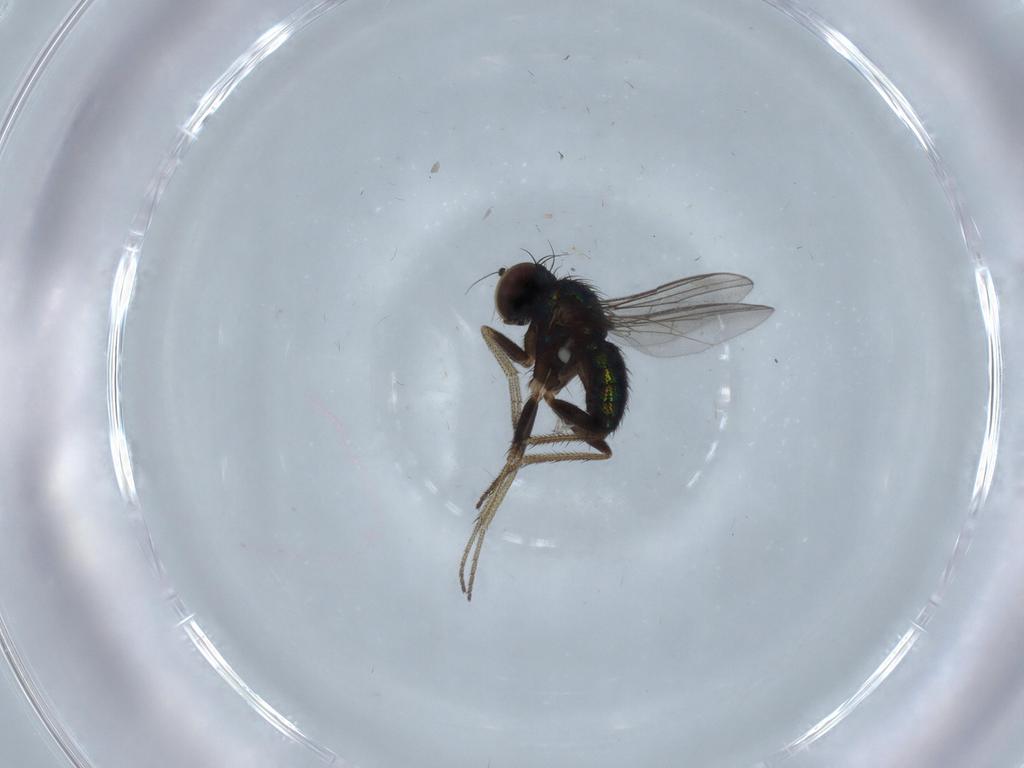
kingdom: Animalia
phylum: Arthropoda
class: Insecta
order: Diptera
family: Dolichopodidae
